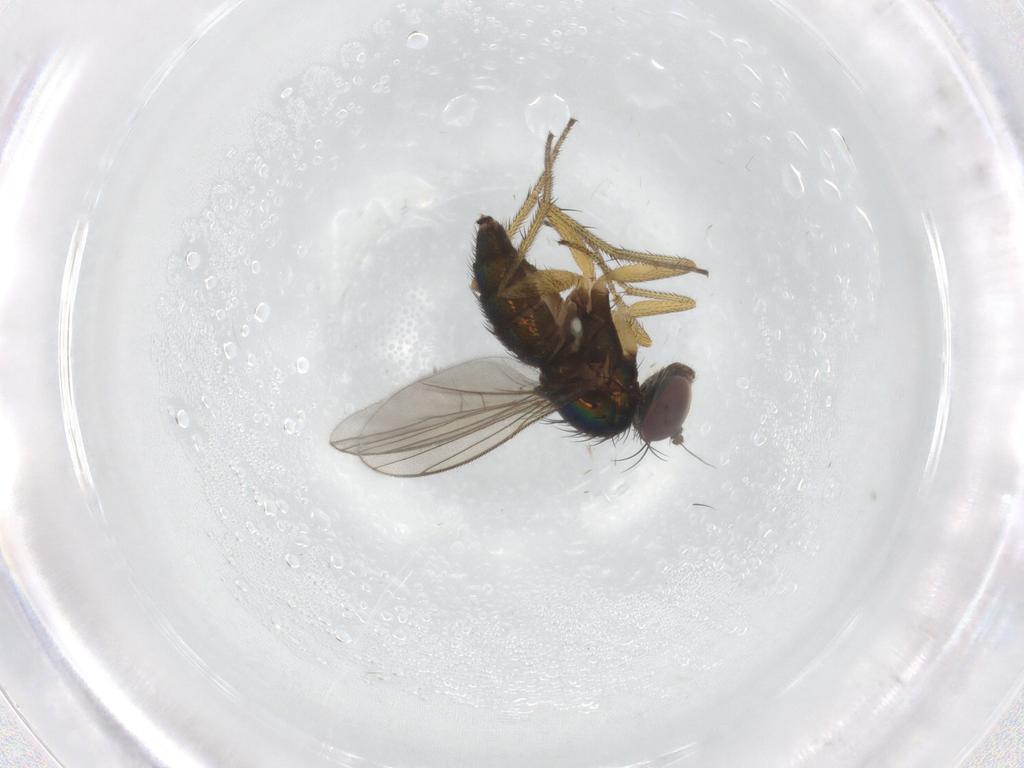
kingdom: Animalia
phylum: Arthropoda
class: Insecta
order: Diptera
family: Dolichopodidae
